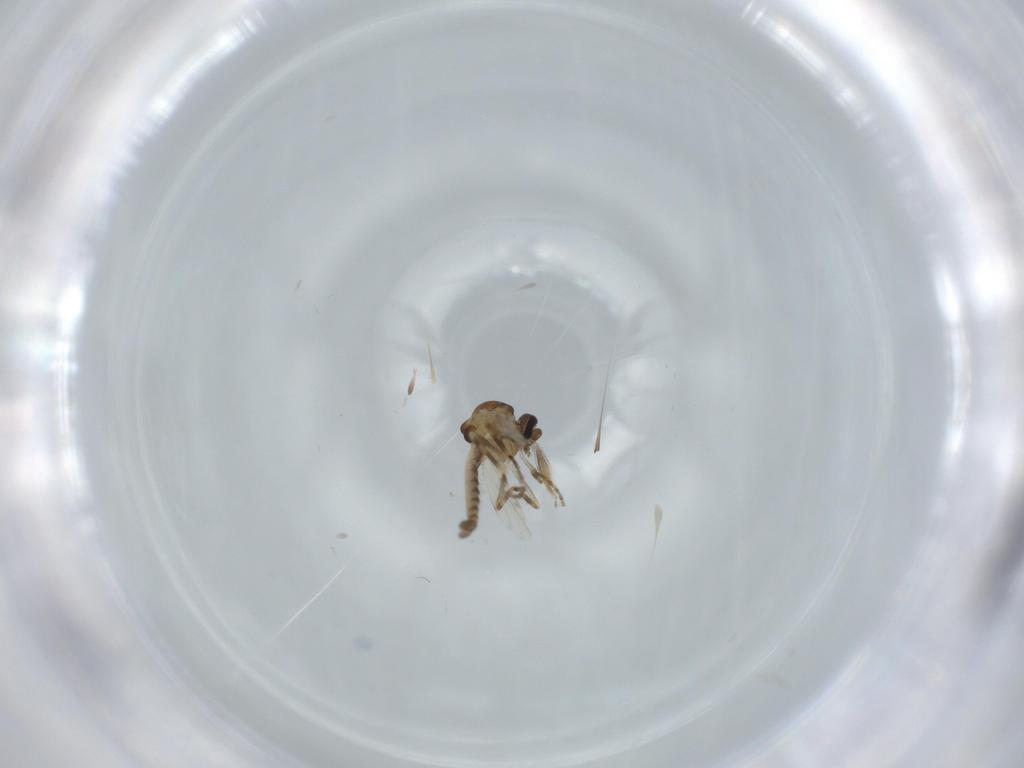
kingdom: Animalia
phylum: Arthropoda
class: Insecta
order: Diptera
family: Ceratopogonidae
